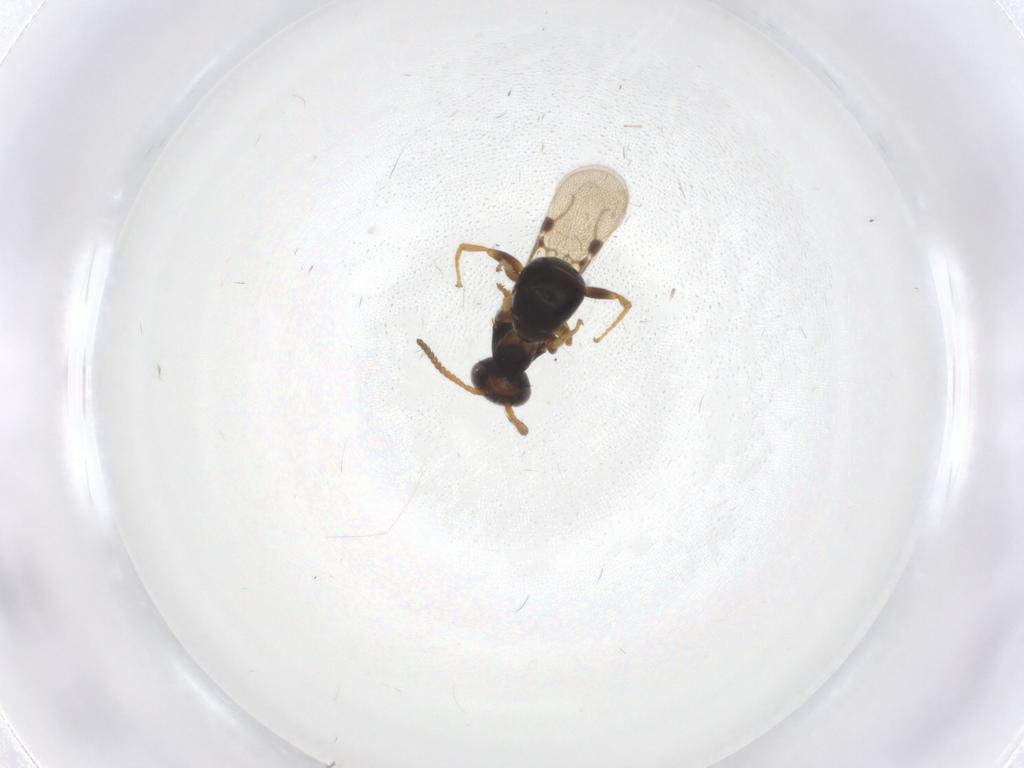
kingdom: Animalia
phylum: Arthropoda
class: Insecta
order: Hymenoptera
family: Bethylidae
